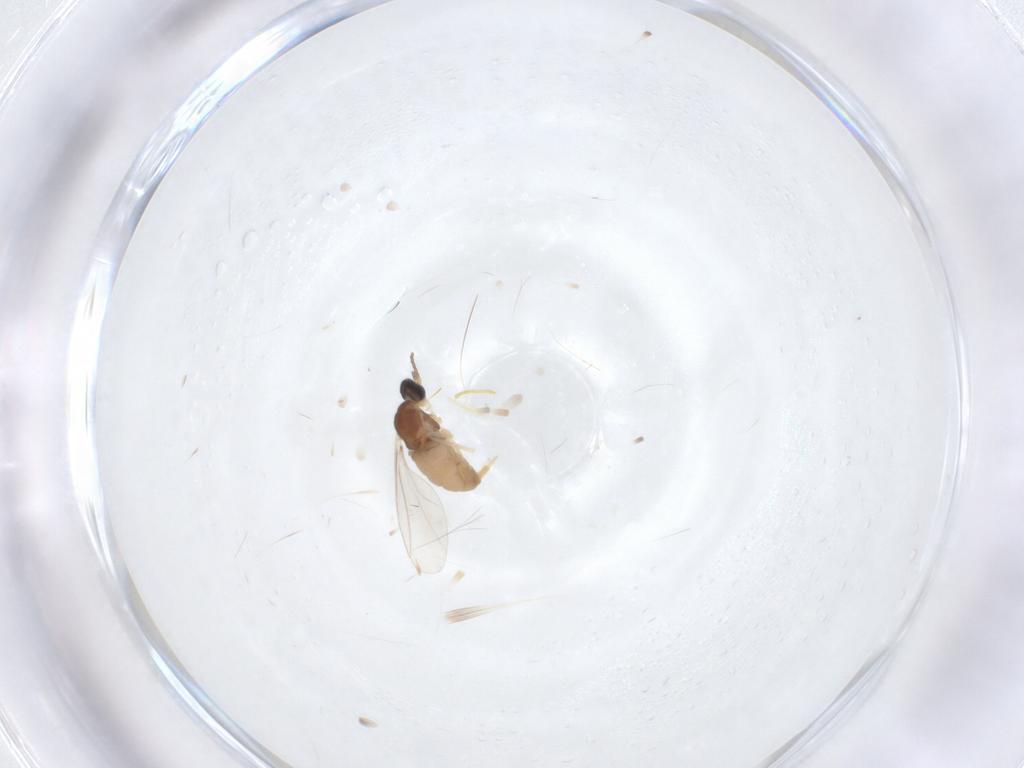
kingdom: Animalia
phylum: Arthropoda
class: Insecta
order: Diptera
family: Cecidomyiidae
